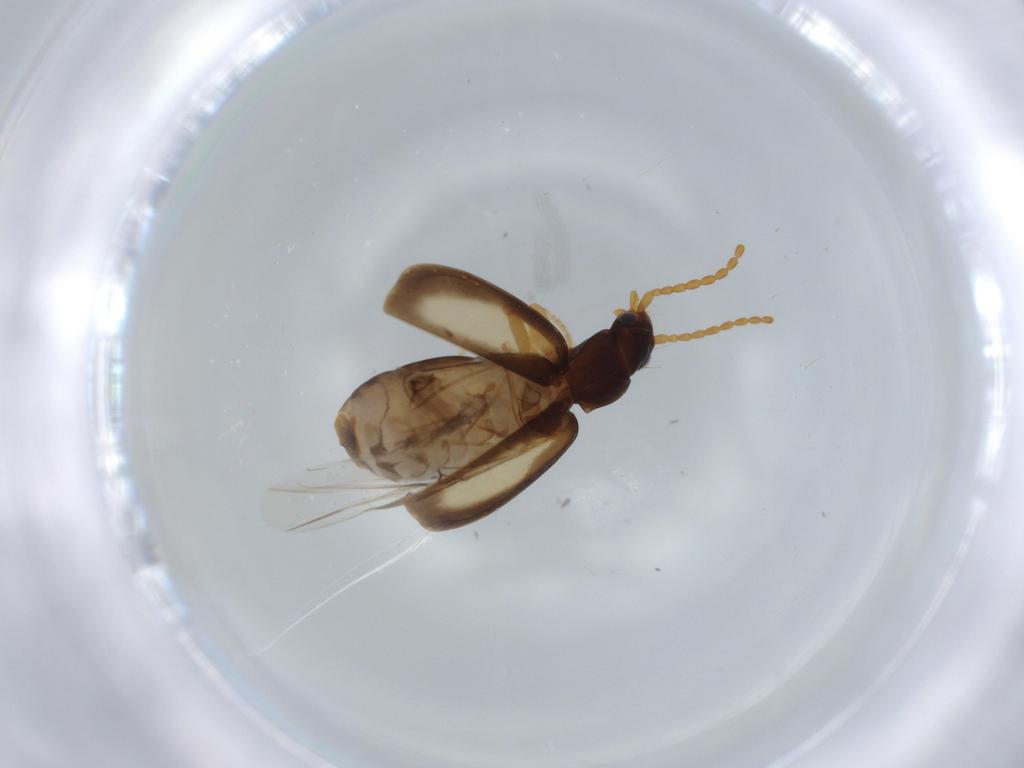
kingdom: Animalia
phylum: Arthropoda
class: Insecta
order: Coleoptera
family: Carabidae
